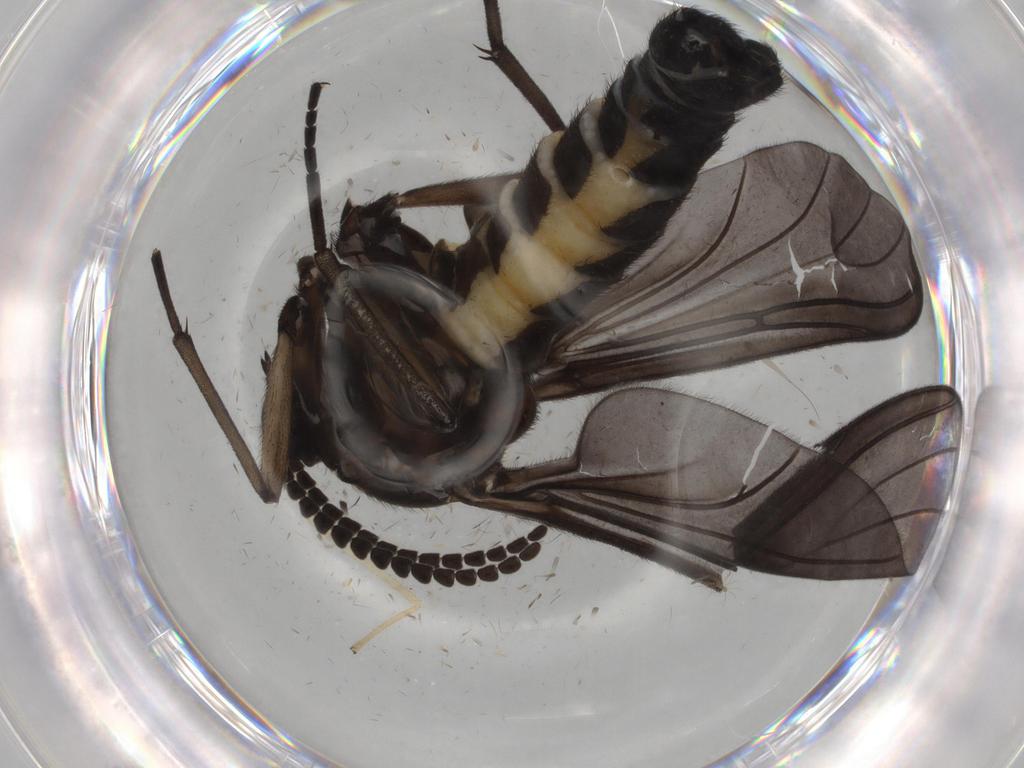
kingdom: Animalia
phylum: Arthropoda
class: Insecta
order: Diptera
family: Sciaridae
